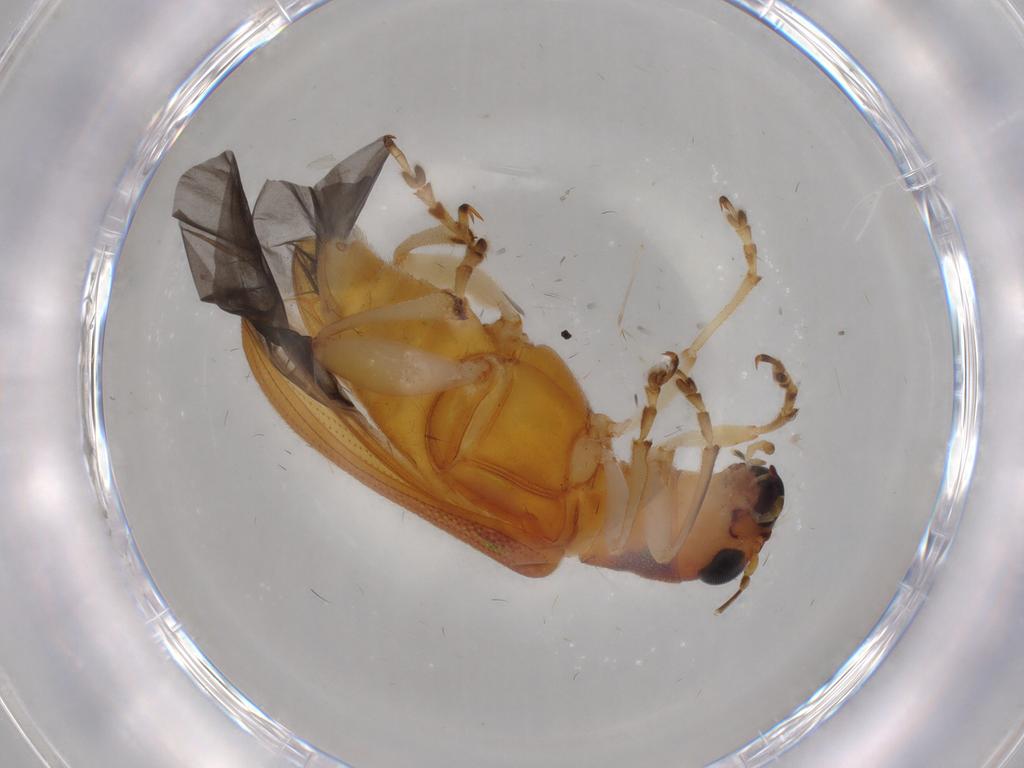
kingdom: Animalia
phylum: Arthropoda
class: Insecta
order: Coleoptera
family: Chrysomelidae
